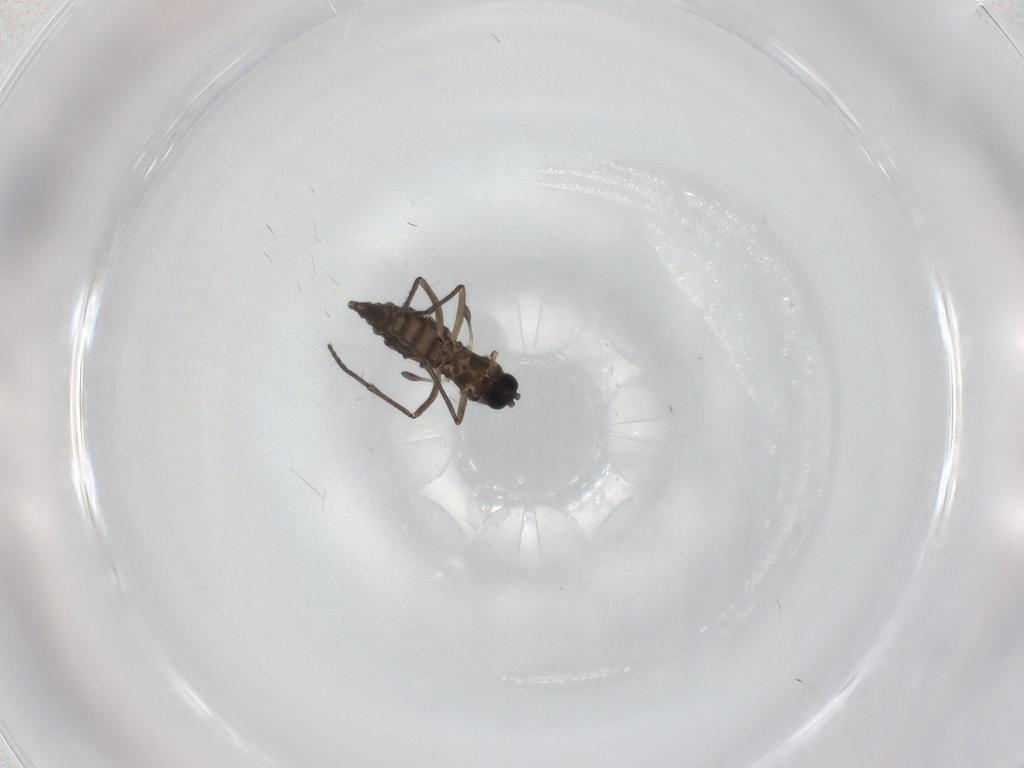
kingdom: Animalia
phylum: Arthropoda
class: Insecta
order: Diptera
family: Sciaridae
